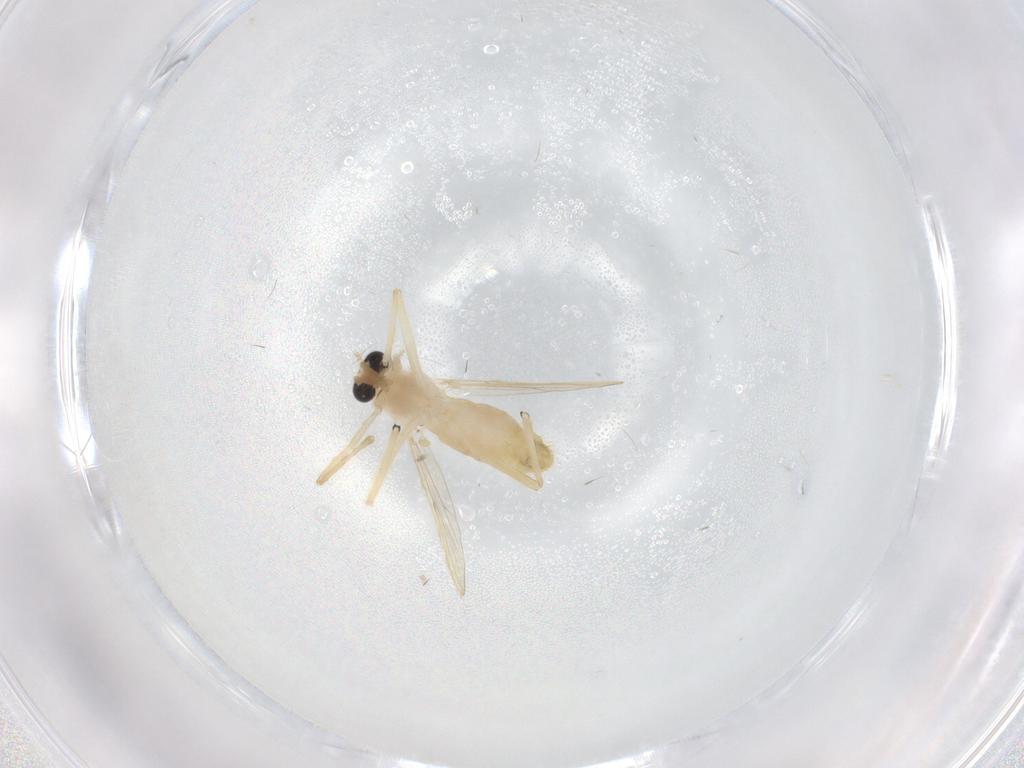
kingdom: Animalia
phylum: Arthropoda
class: Insecta
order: Diptera
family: Chironomidae
